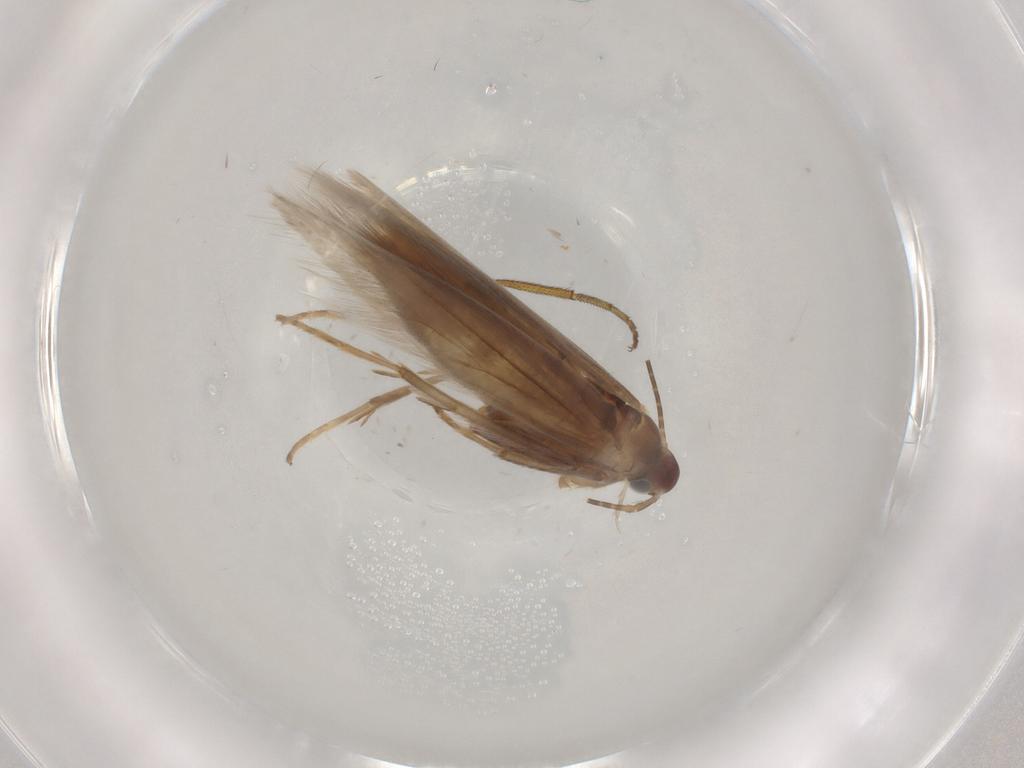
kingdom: Animalia
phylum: Arthropoda
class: Insecta
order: Lepidoptera
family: Coleophoridae
